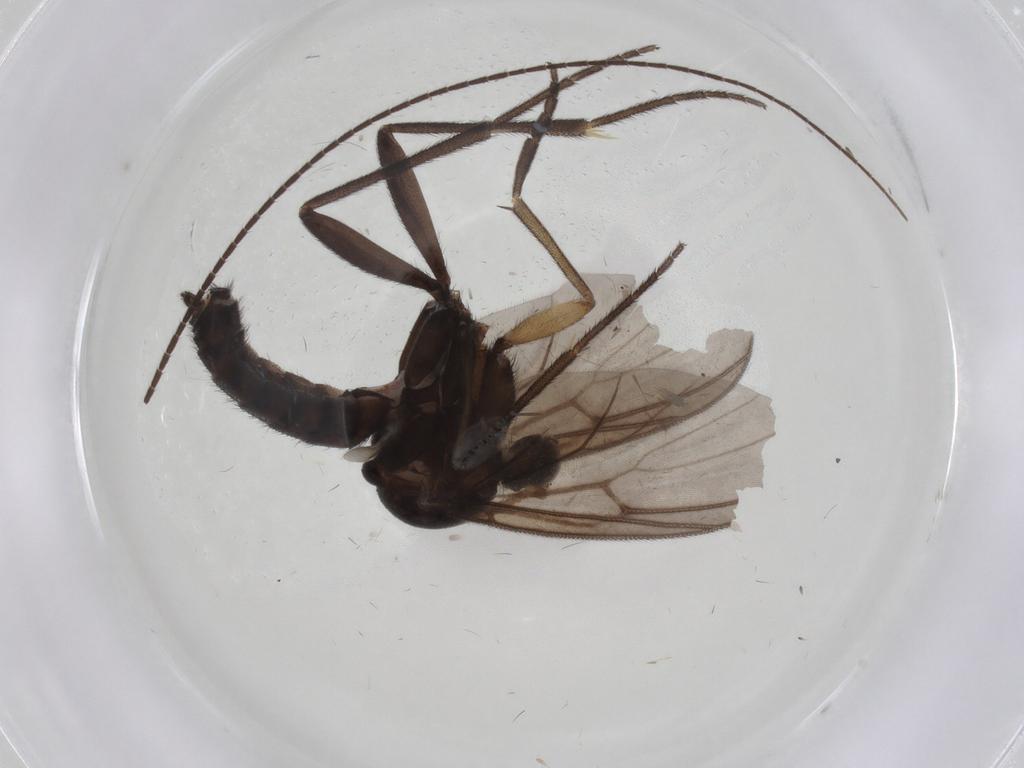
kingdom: Animalia
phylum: Arthropoda
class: Insecta
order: Diptera
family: Mycetophilidae
